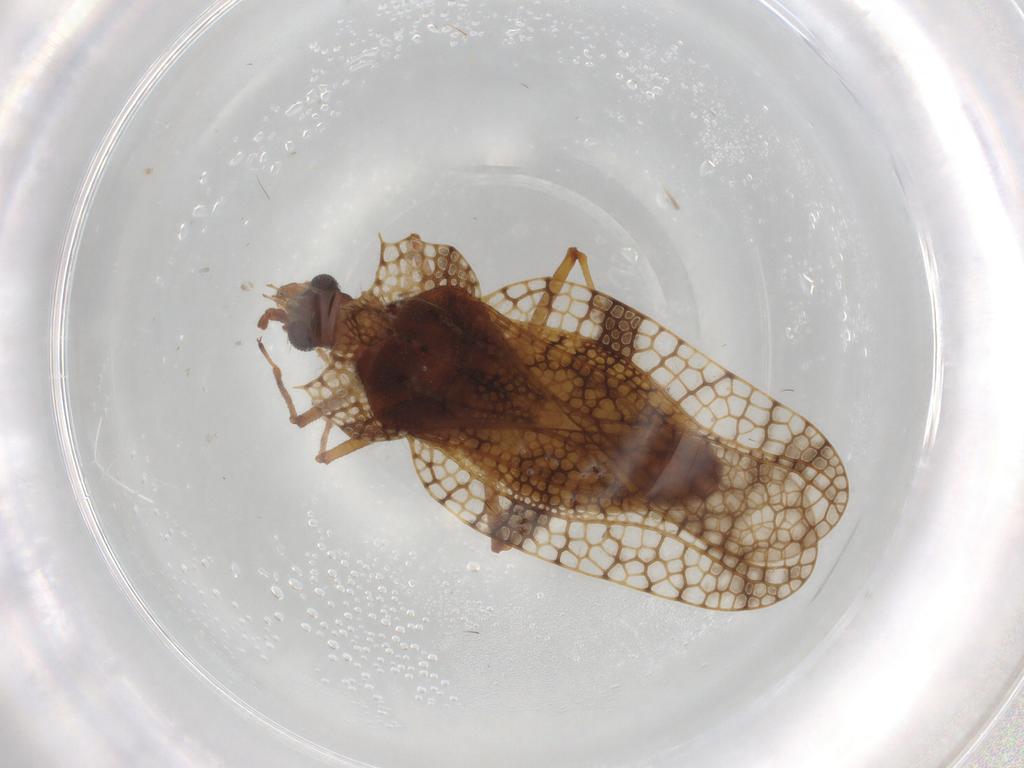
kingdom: Animalia
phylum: Arthropoda
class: Insecta
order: Hemiptera
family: Tingidae
